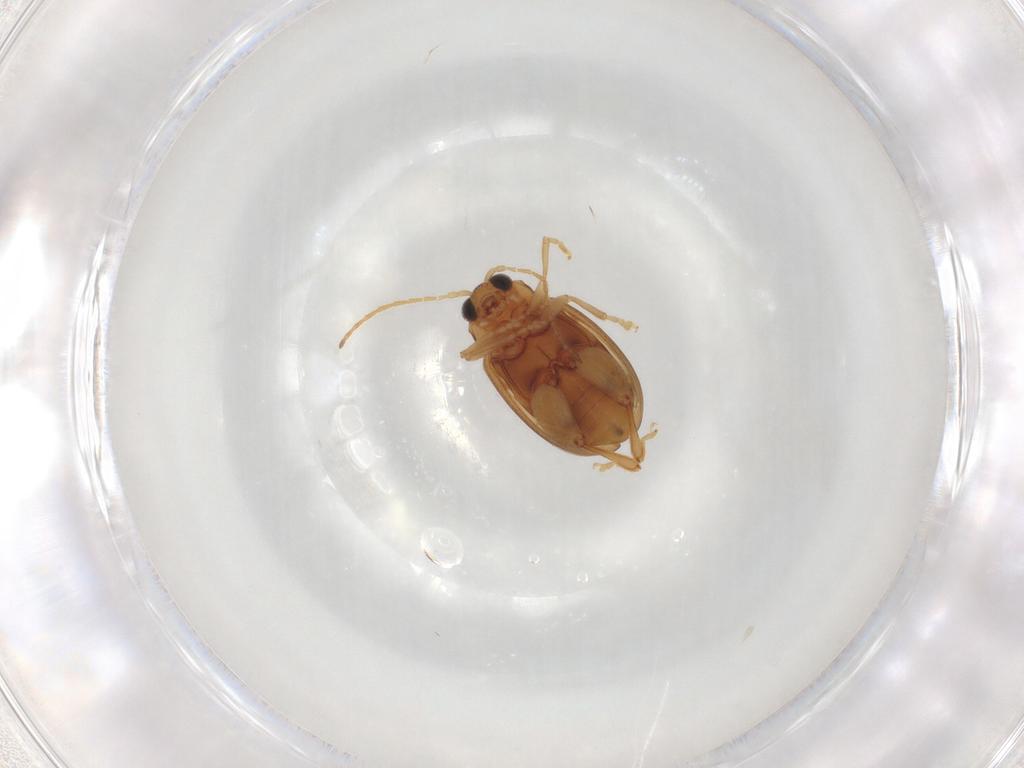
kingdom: Animalia
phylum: Arthropoda
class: Insecta
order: Coleoptera
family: Chrysomelidae
